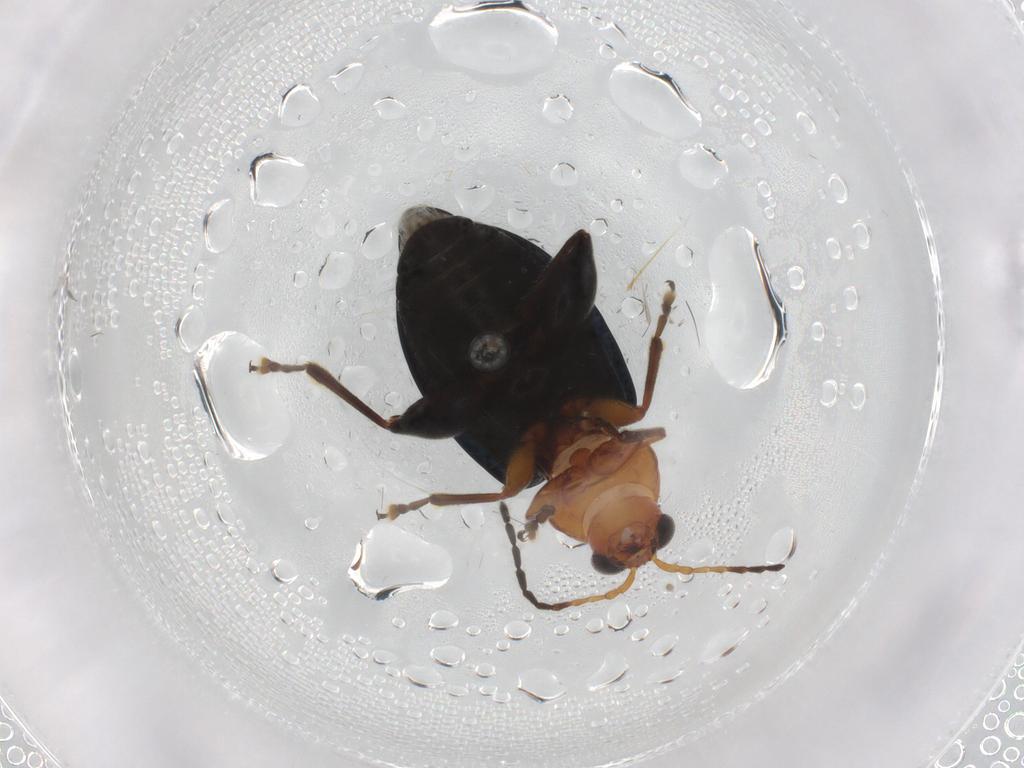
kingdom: Animalia
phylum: Arthropoda
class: Insecta
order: Coleoptera
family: Chrysomelidae
